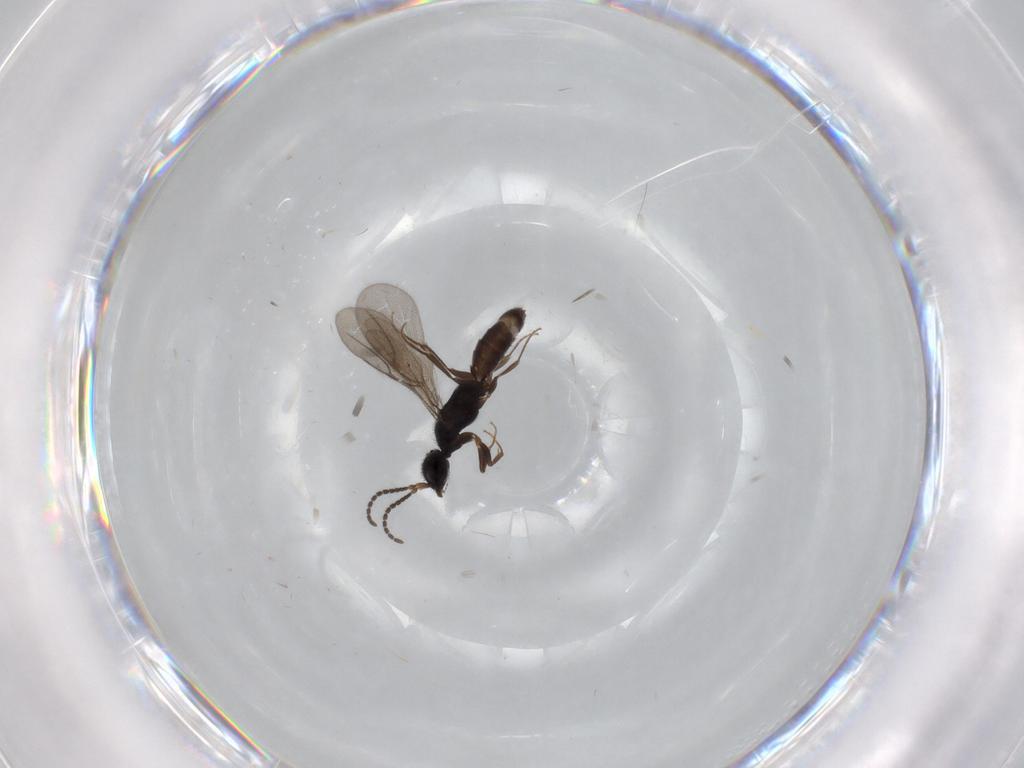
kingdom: Animalia
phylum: Arthropoda
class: Insecta
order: Hymenoptera
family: Bethylidae
